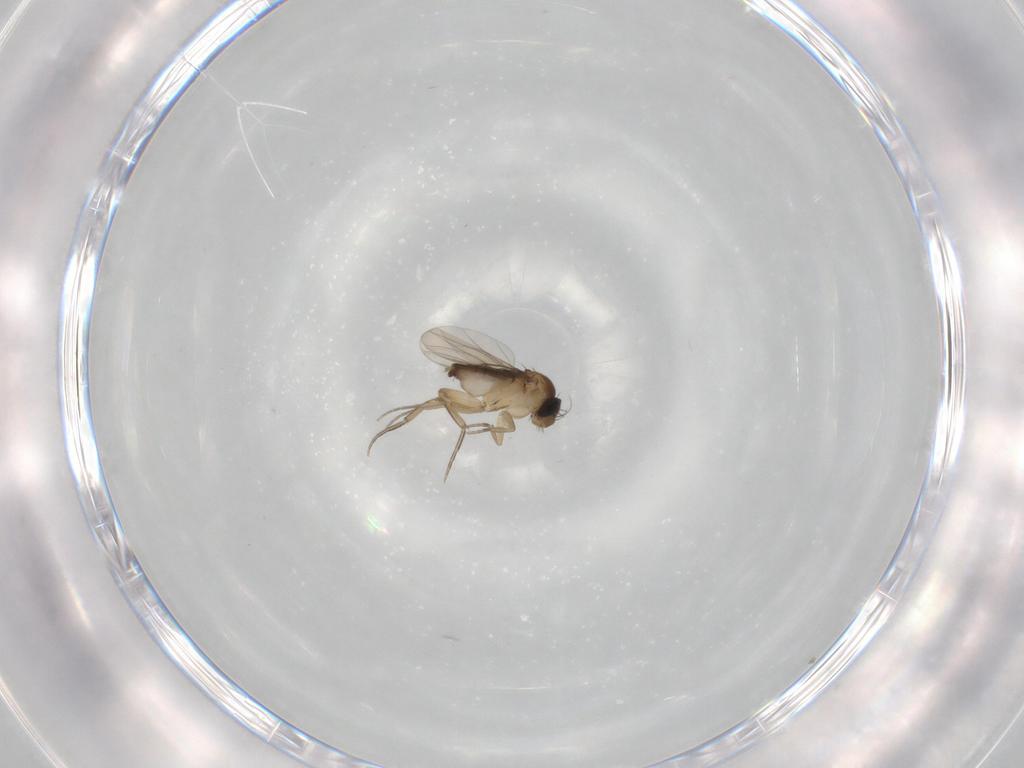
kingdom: Animalia
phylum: Arthropoda
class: Insecta
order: Diptera
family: Phoridae
